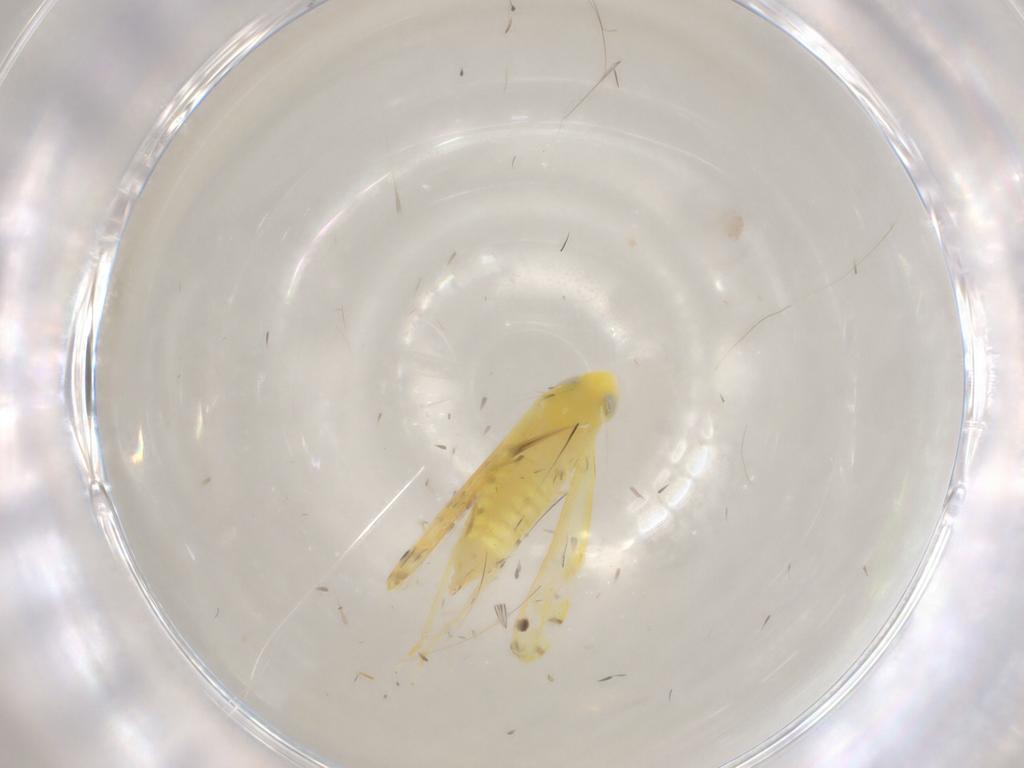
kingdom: Animalia
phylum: Arthropoda
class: Insecta
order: Hemiptera
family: Cicadellidae
